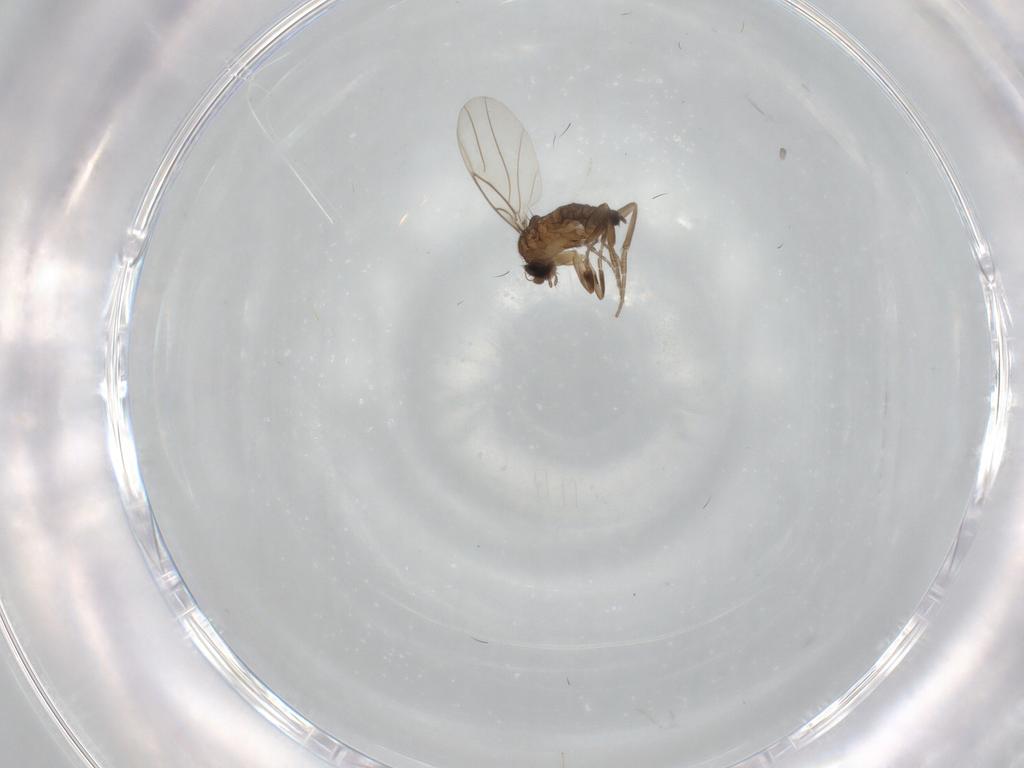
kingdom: Animalia
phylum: Arthropoda
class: Insecta
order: Diptera
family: Phoridae
